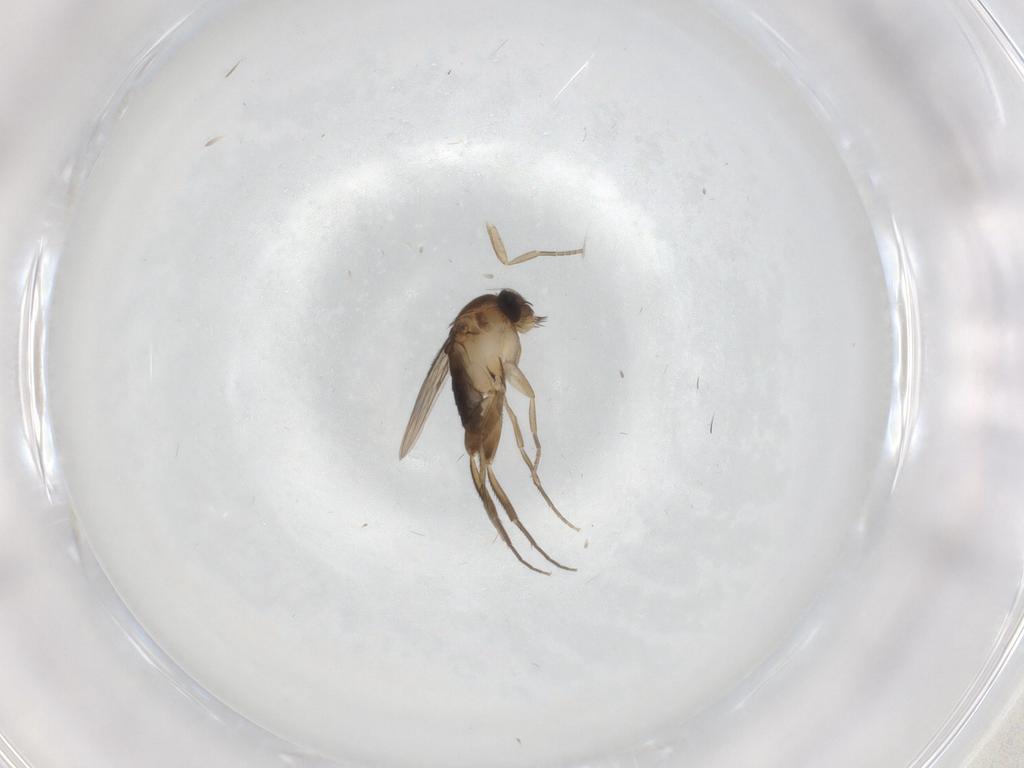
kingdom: Animalia
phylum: Arthropoda
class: Insecta
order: Diptera
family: Phoridae
